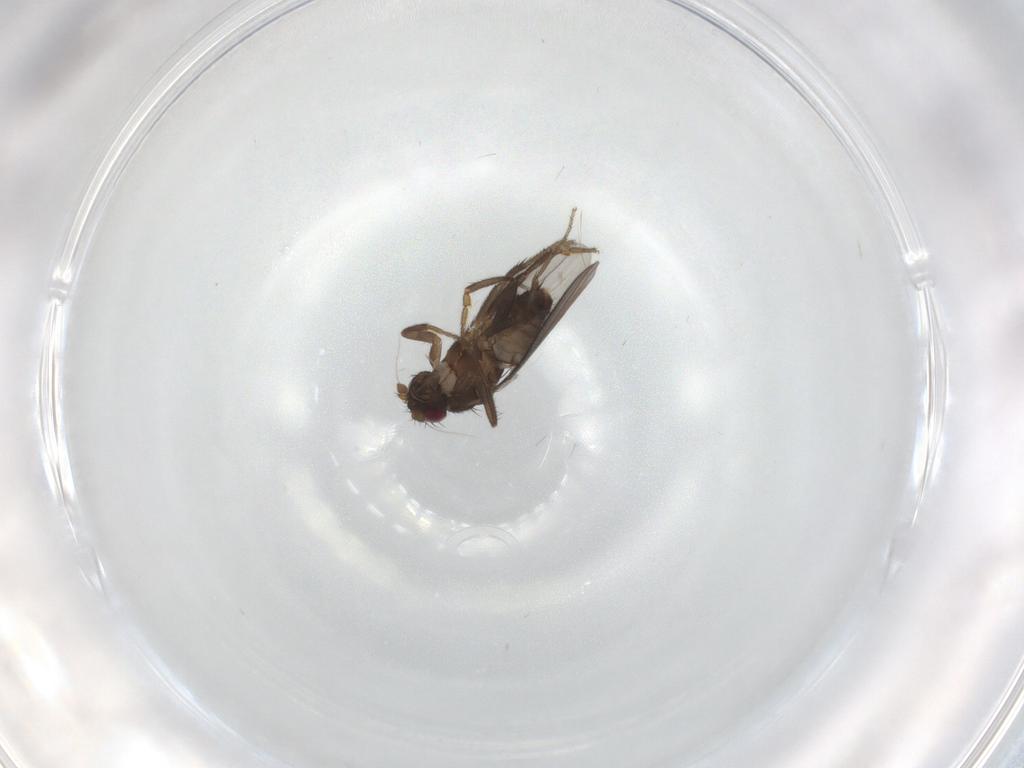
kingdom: Animalia
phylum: Arthropoda
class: Insecta
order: Diptera
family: Sphaeroceridae
